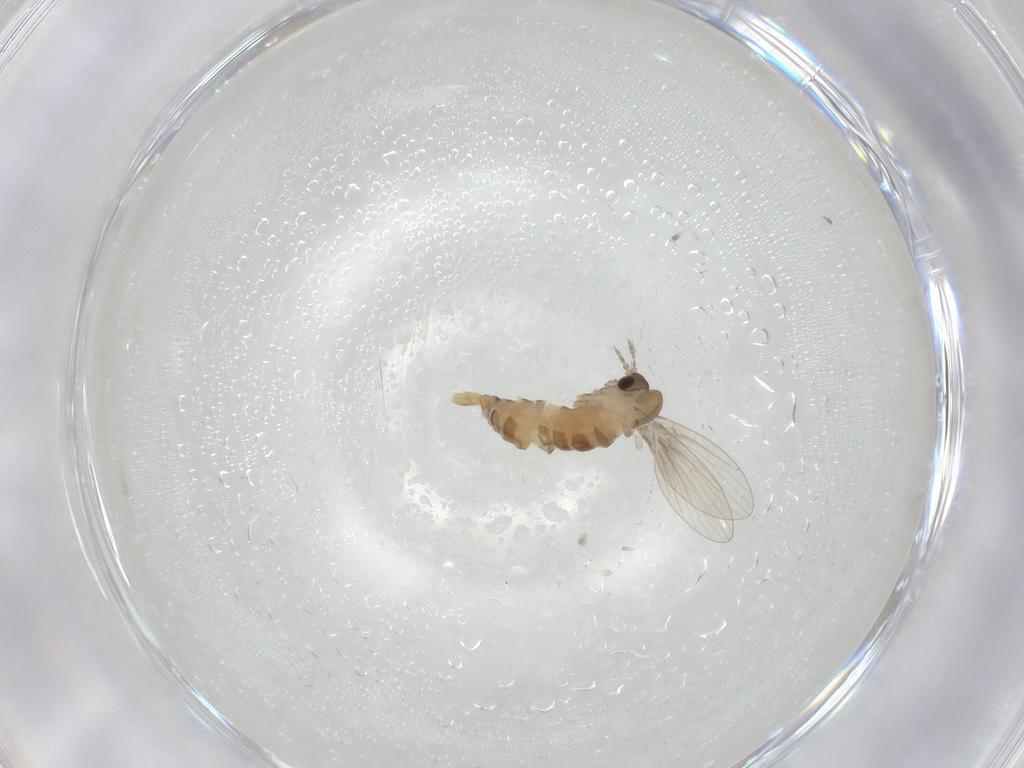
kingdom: Animalia
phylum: Arthropoda
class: Insecta
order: Diptera
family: Psychodidae
